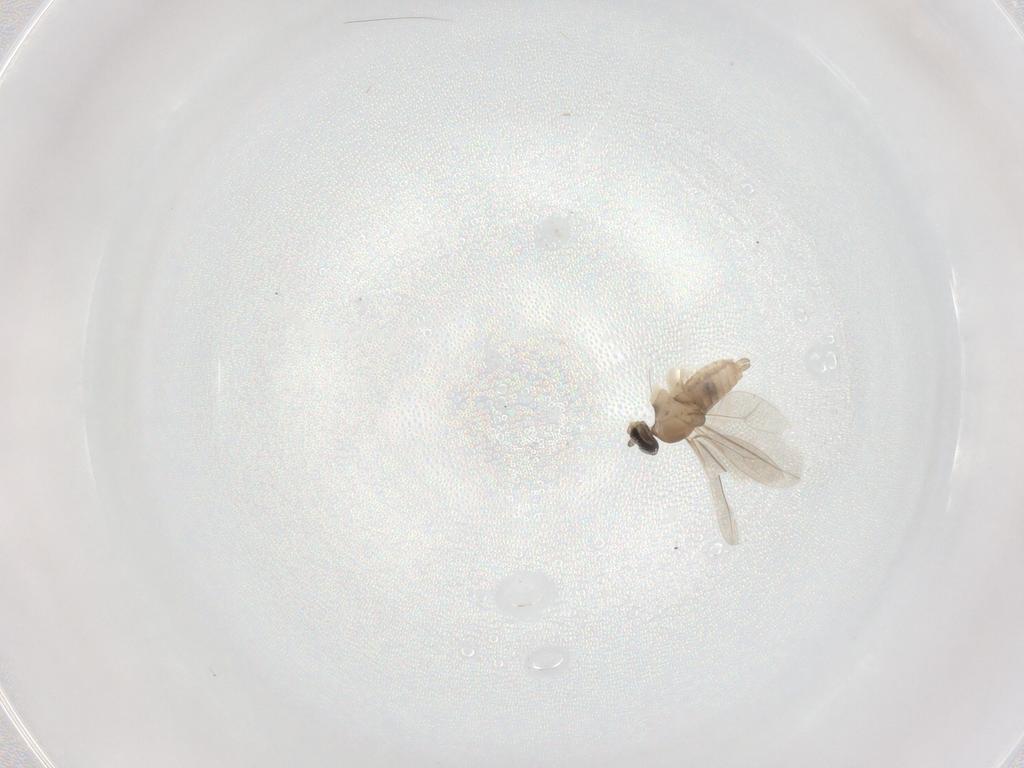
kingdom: Animalia
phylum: Arthropoda
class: Insecta
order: Diptera
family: Cecidomyiidae
